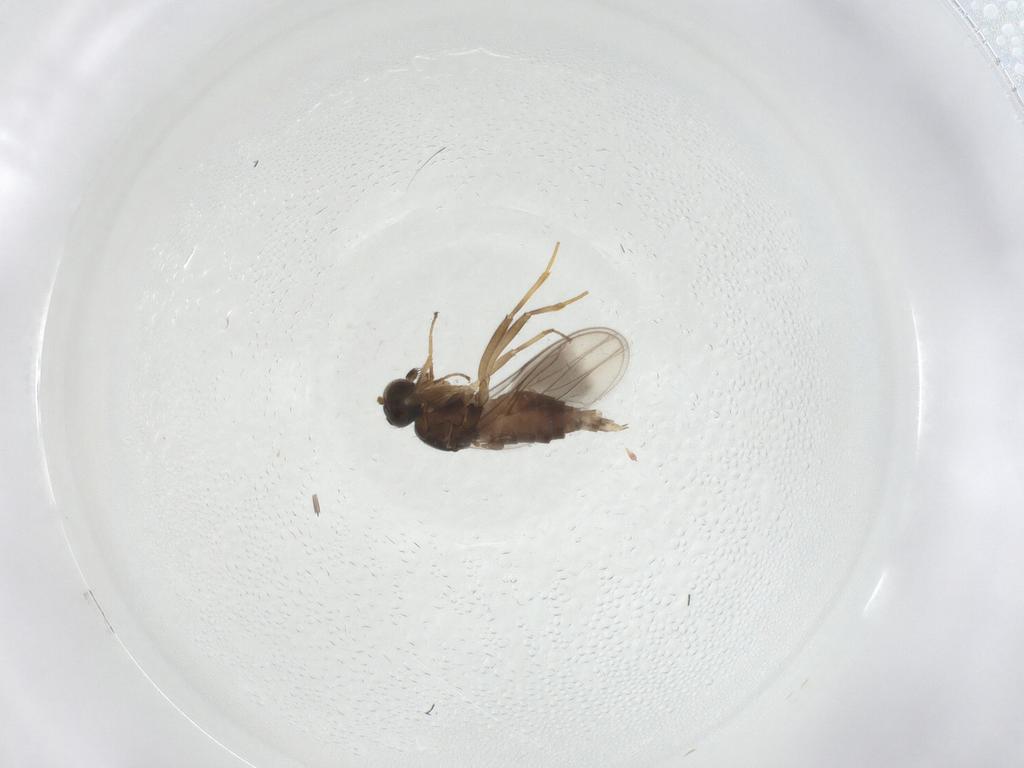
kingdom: Animalia
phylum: Arthropoda
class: Insecta
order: Diptera
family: Hybotidae
